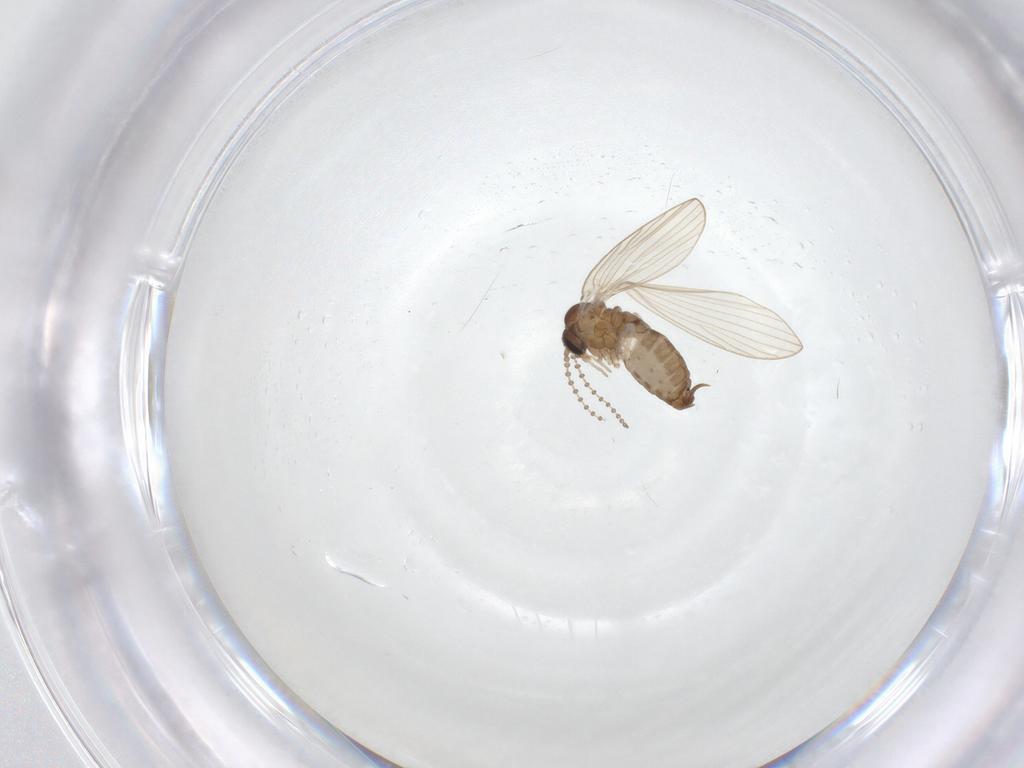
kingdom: Animalia
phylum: Arthropoda
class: Insecta
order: Diptera
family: Psychodidae
